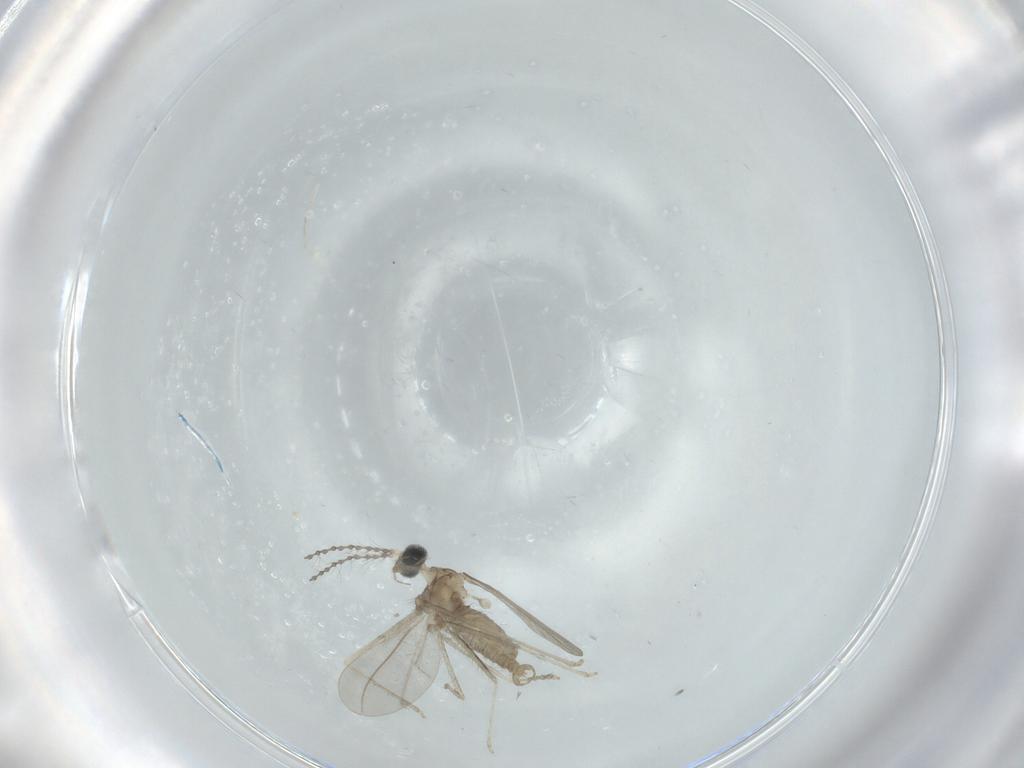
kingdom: Animalia
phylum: Arthropoda
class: Insecta
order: Diptera
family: Cecidomyiidae
